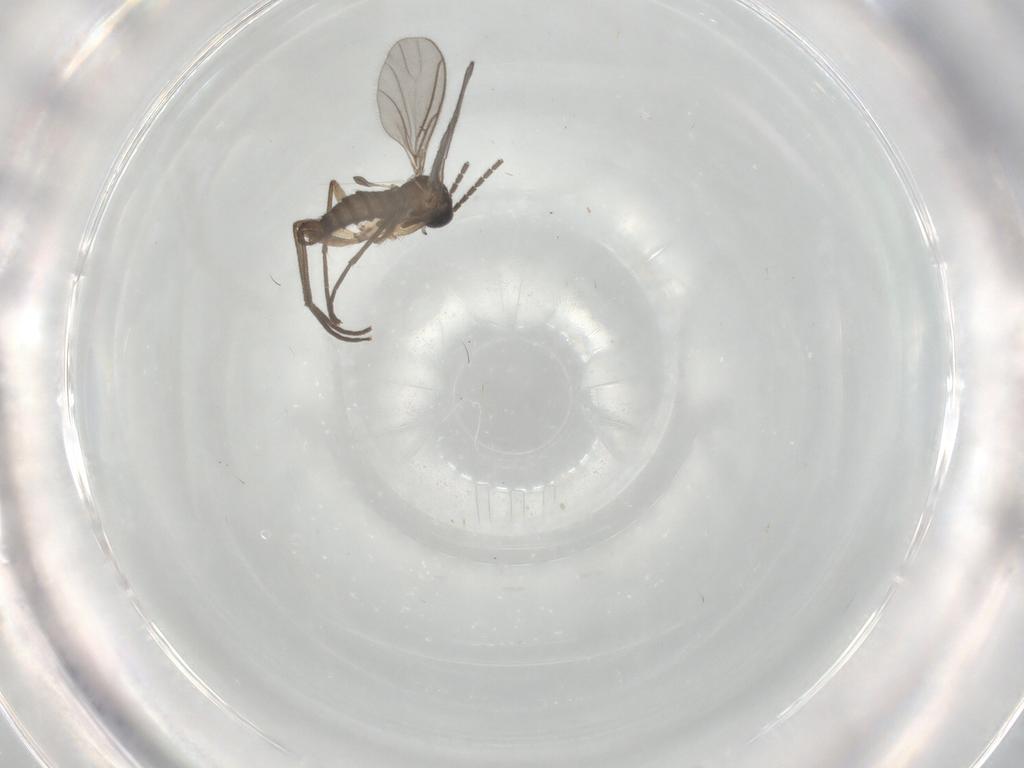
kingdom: Animalia
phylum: Arthropoda
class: Insecta
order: Diptera
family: Sciaridae
